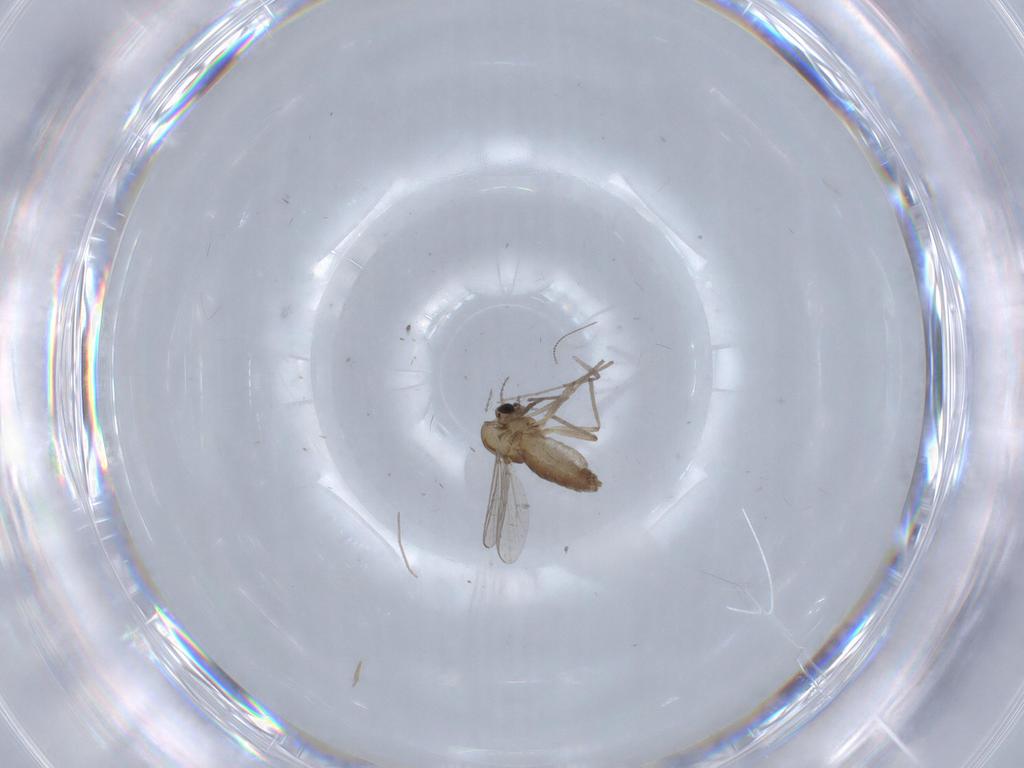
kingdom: Animalia
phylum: Arthropoda
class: Insecta
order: Diptera
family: Chironomidae
